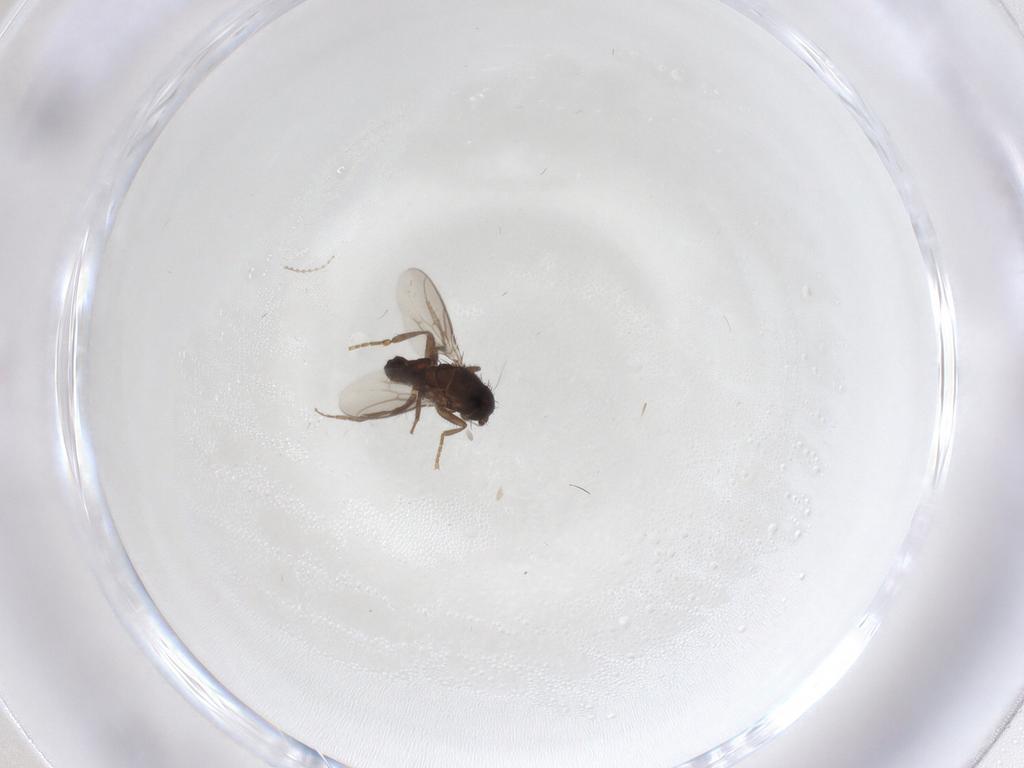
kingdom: Animalia
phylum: Arthropoda
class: Insecta
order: Diptera
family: Sphaeroceridae
